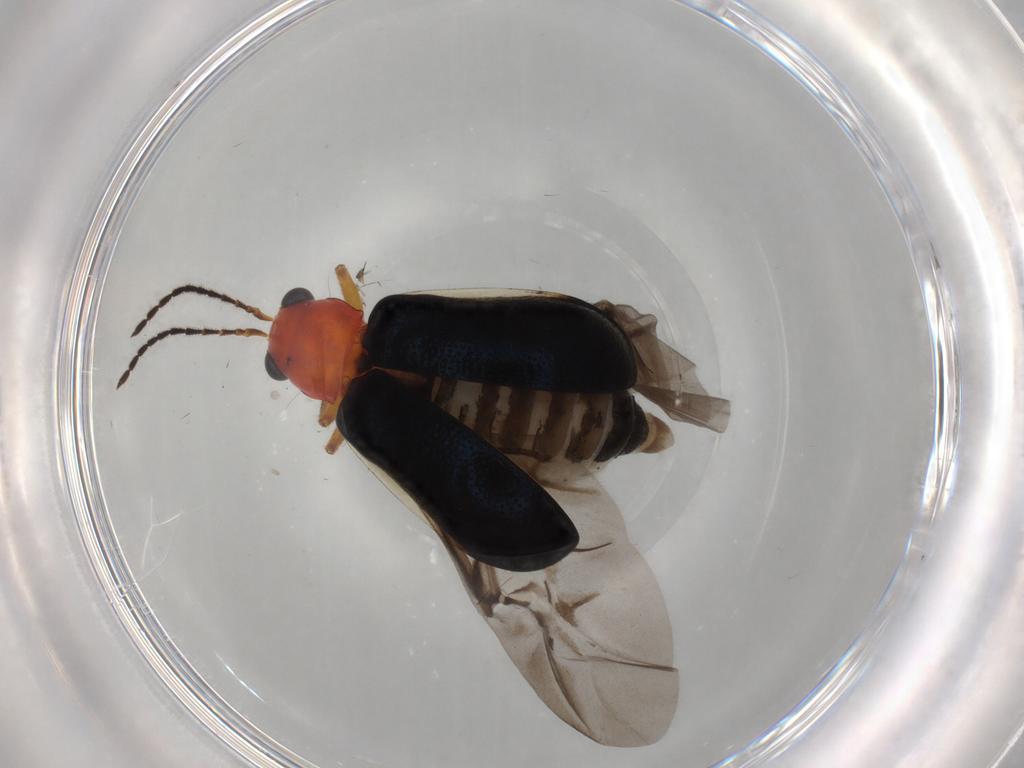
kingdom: Animalia
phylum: Arthropoda
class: Insecta
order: Coleoptera
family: Chrysomelidae
